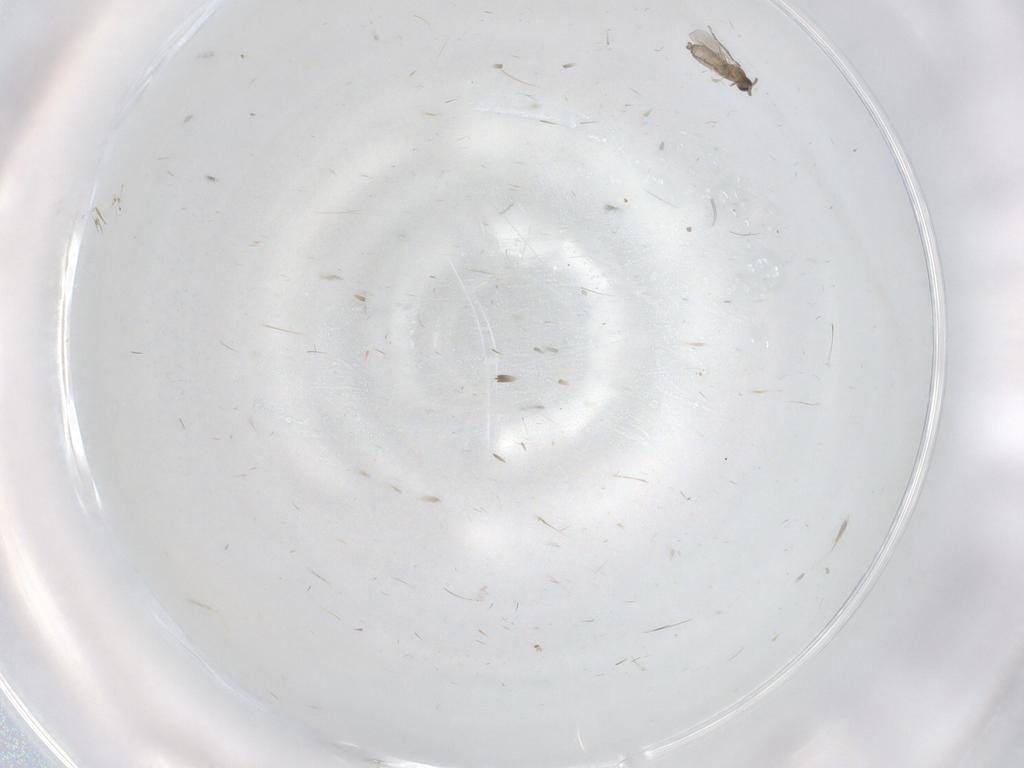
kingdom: Animalia
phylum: Arthropoda
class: Insecta
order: Diptera
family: Cecidomyiidae
